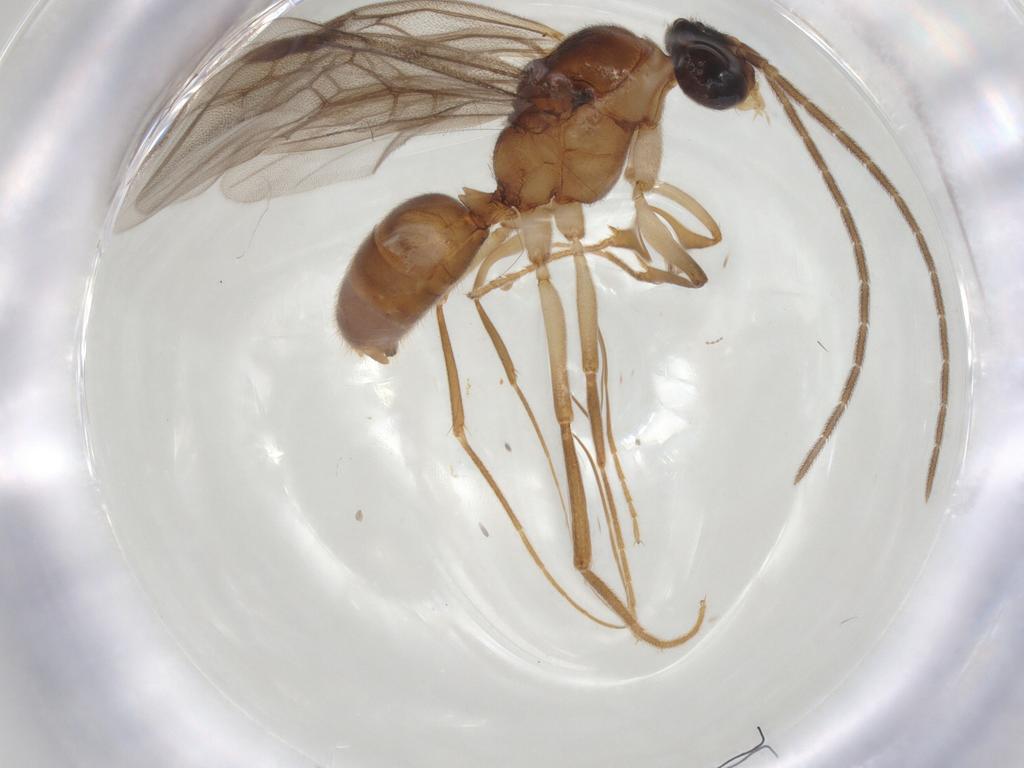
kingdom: Animalia
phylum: Arthropoda
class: Insecta
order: Hymenoptera
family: Formicidae
